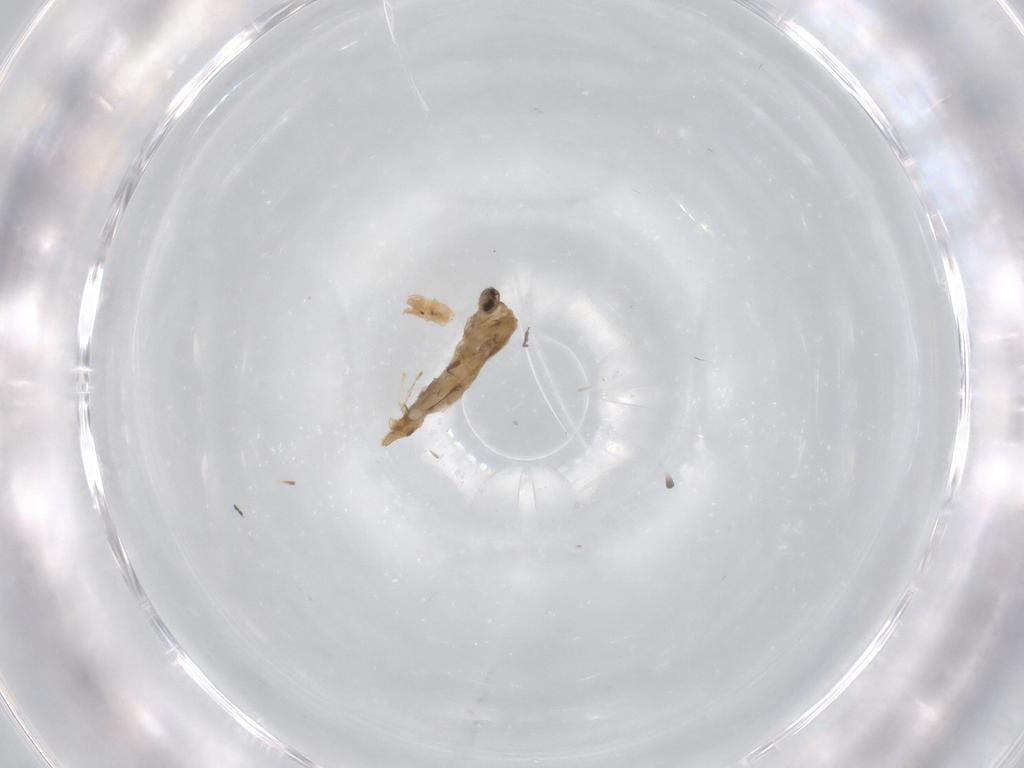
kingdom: Animalia
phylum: Arthropoda
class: Insecta
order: Diptera
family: Cecidomyiidae
